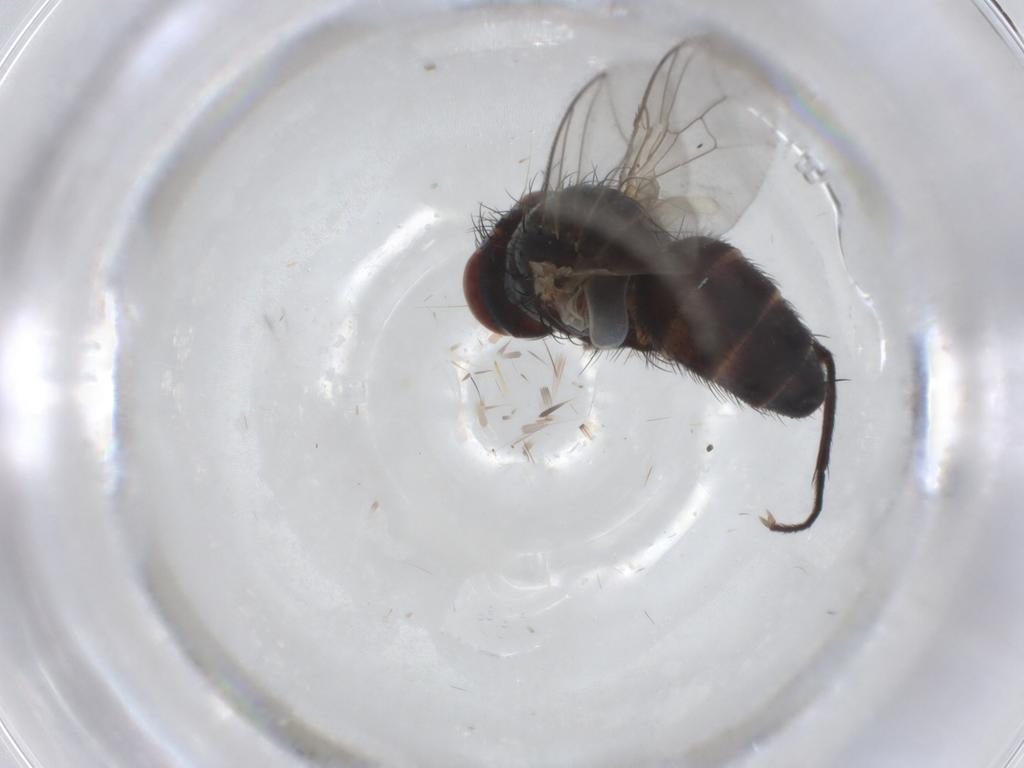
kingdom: Animalia
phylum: Arthropoda
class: Insecta
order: Diptera
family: Sarcophagidae
